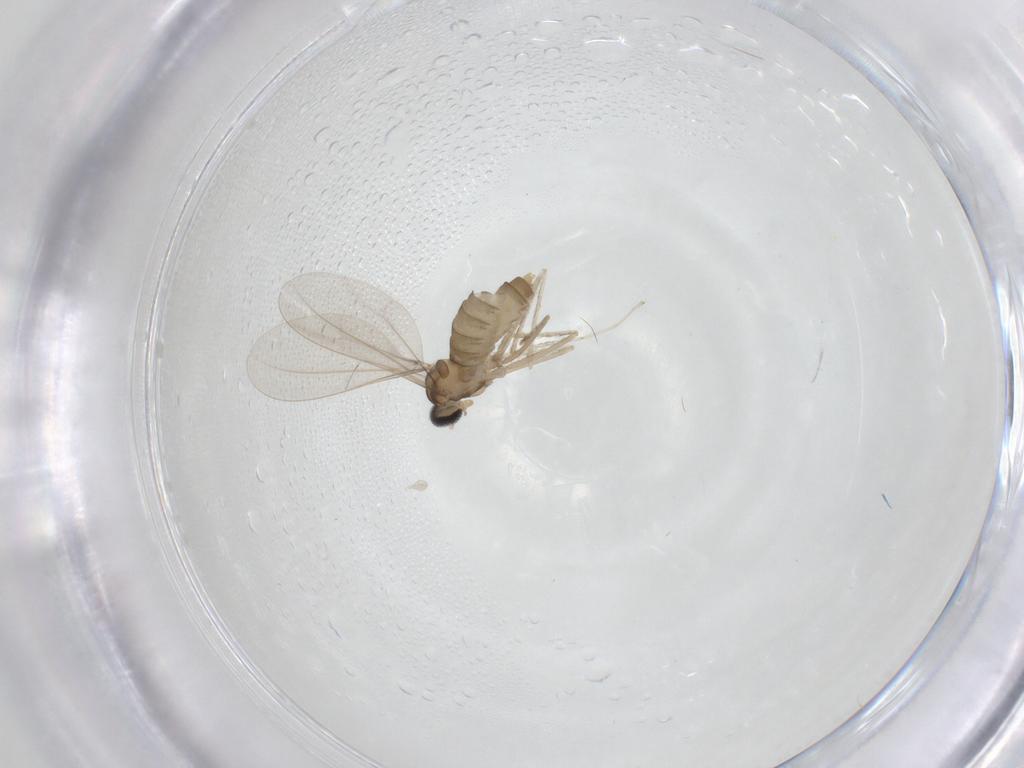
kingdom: Animalia
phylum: Arthropoda
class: Insecta
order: Diptera
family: Cecidomyiidae
